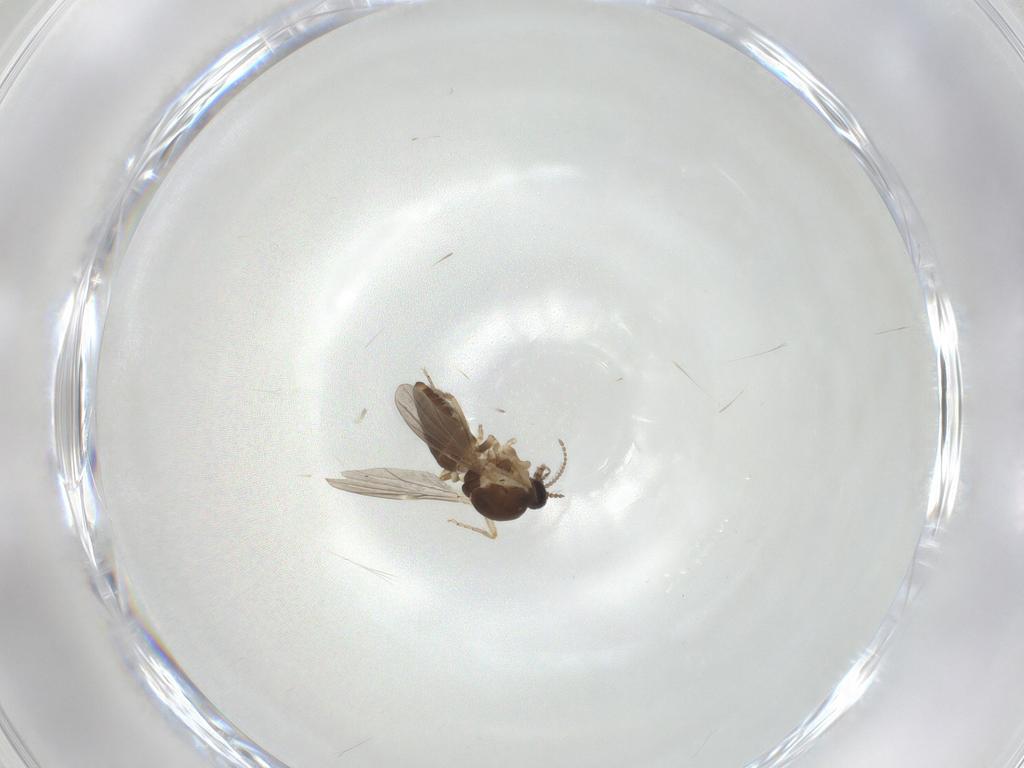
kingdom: Animalia
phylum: Arthropoda
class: Insecta
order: Diptera
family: Ceratopogonidae
